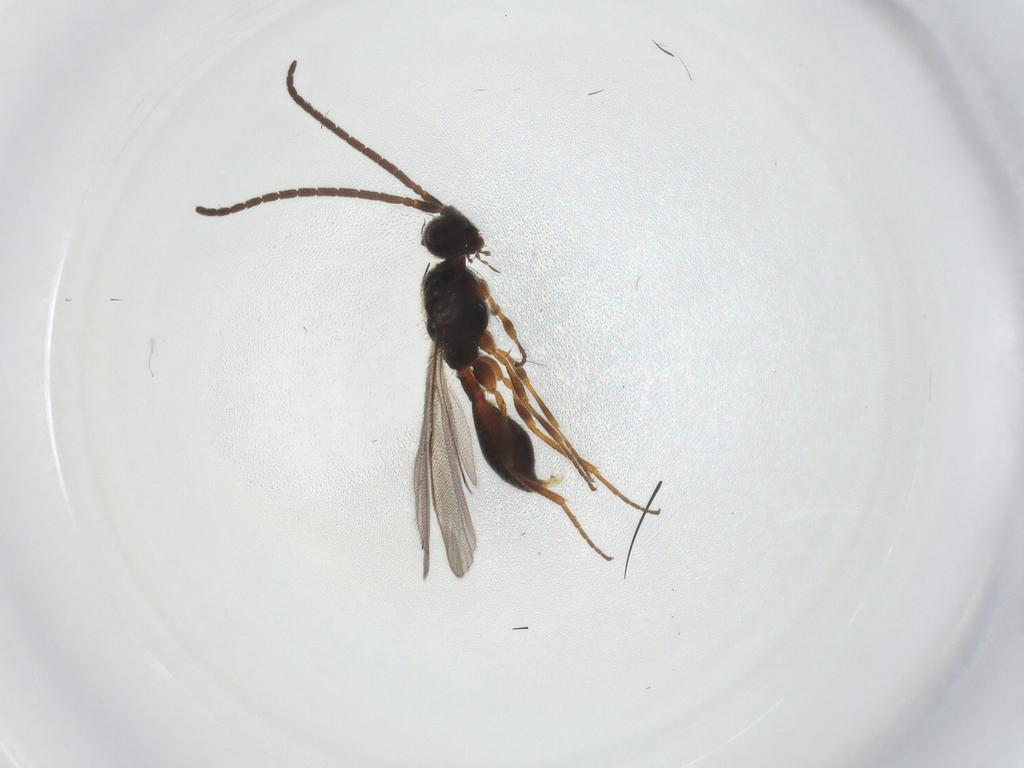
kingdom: Animalia
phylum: Arthropoda
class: Insecta
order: Hymenoptera
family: Diapriidae
